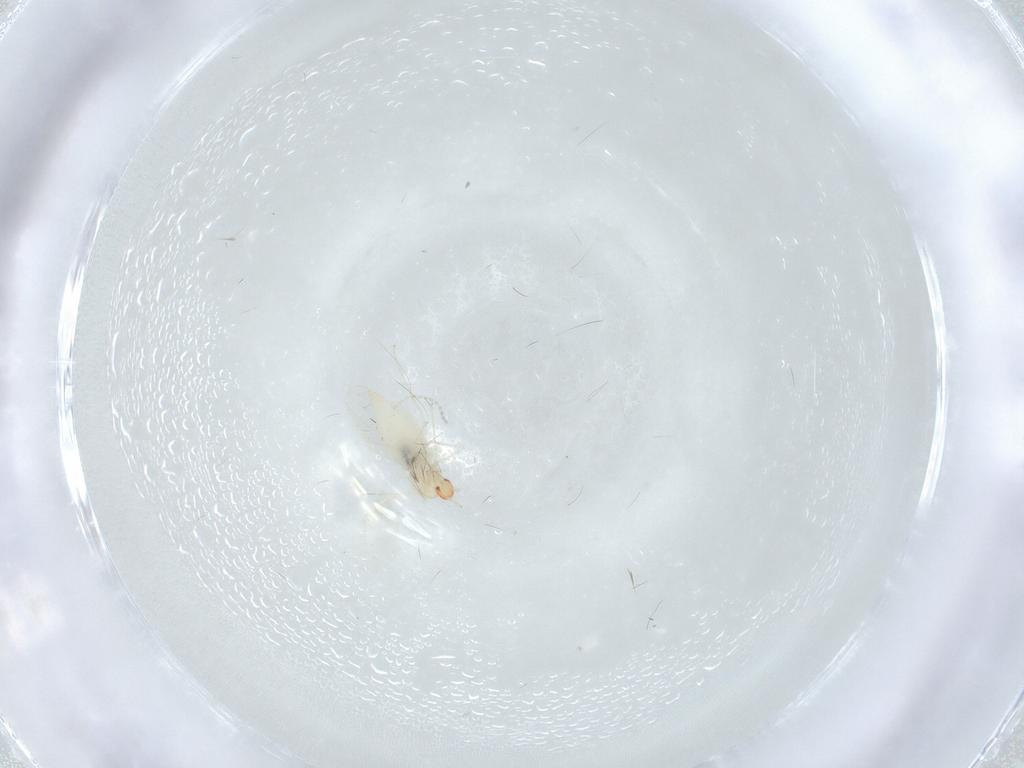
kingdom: Animalia
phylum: Arthropoda
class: Insecta
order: Diptera
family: Cecidomyiidae
